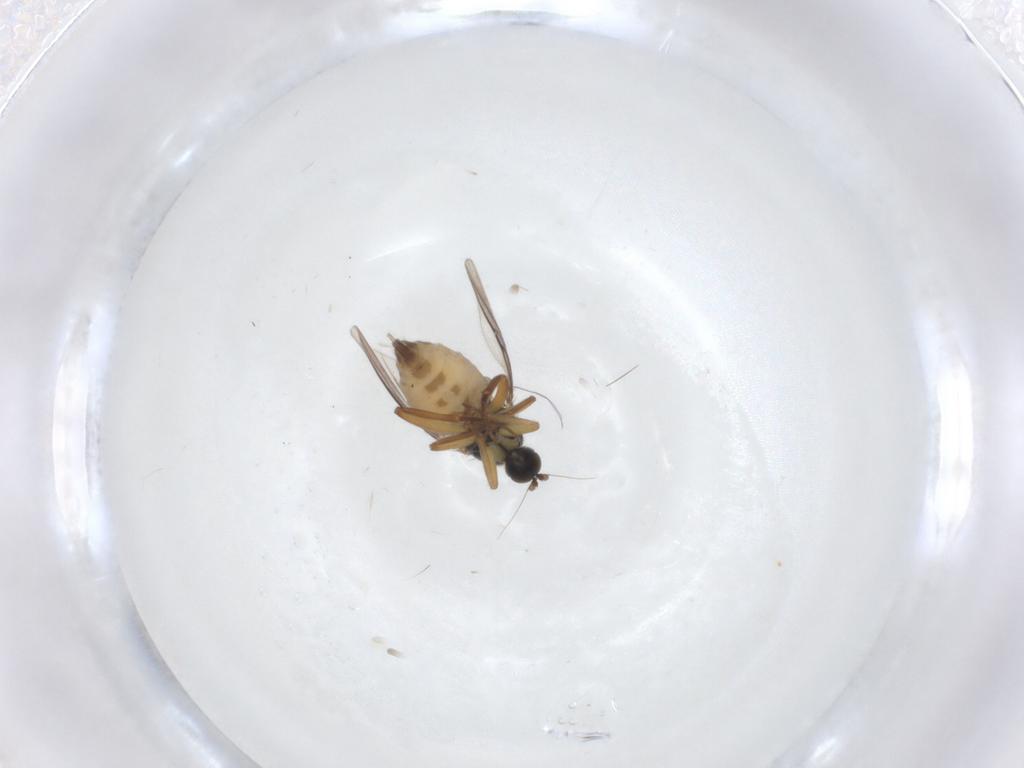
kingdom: Animalia
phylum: Arthropoda
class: Insecta
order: Diptera
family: Hybotidae
